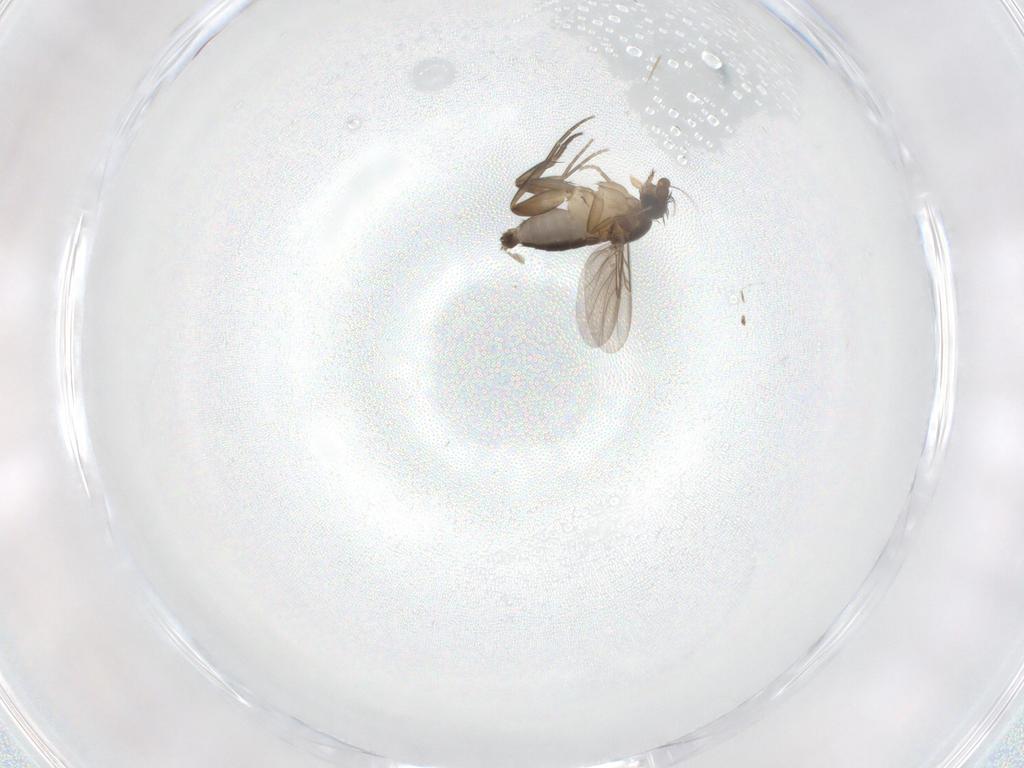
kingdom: Animalia
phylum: Arthropoda
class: Insecta
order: Diptera
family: Phoridae
